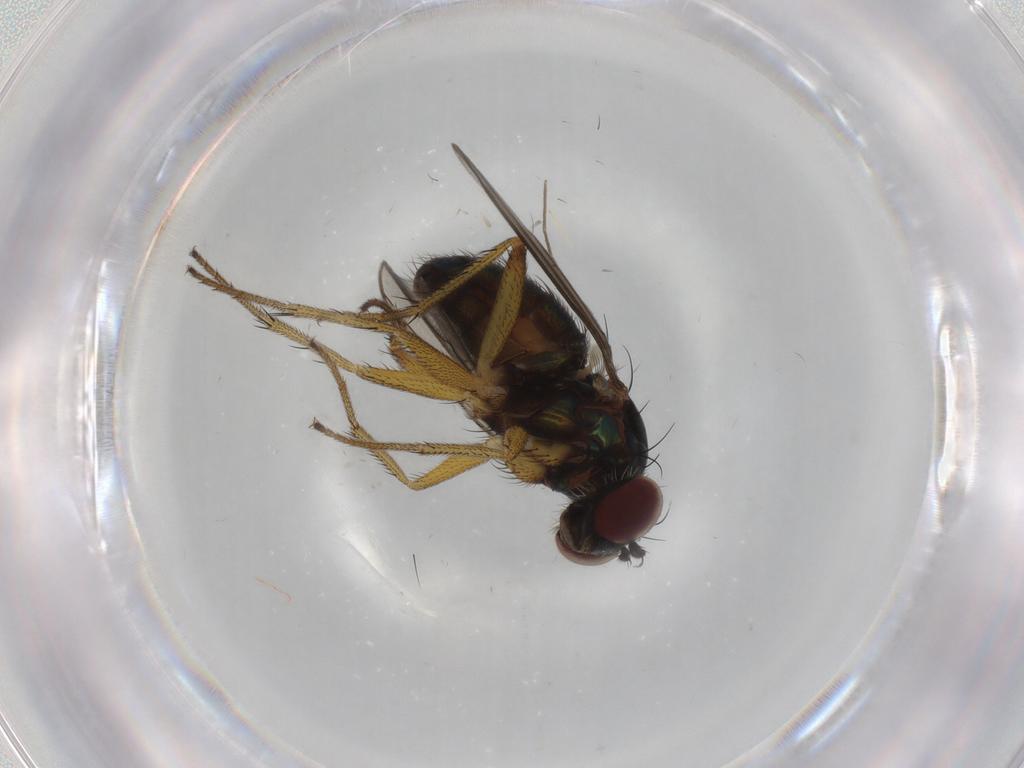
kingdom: Animalia
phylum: Arthropoda
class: Insecta
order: Diptera
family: Dolichopodidae
